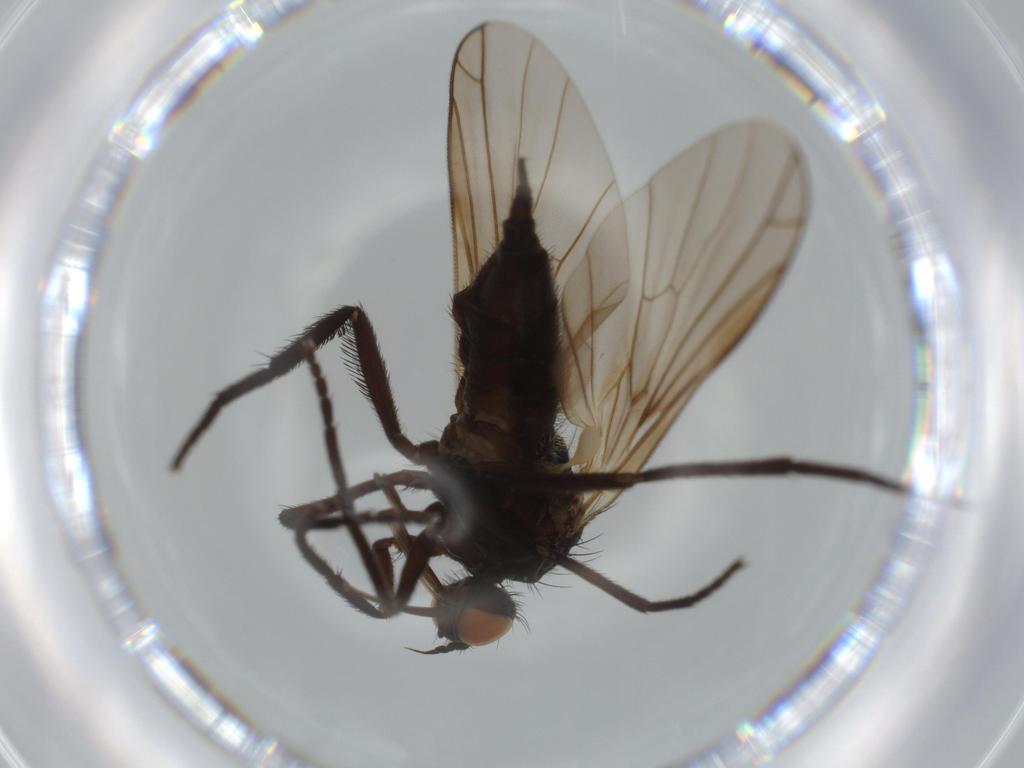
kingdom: Animalia
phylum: Arthropoda
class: Insecta
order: Diptera
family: Empididae
